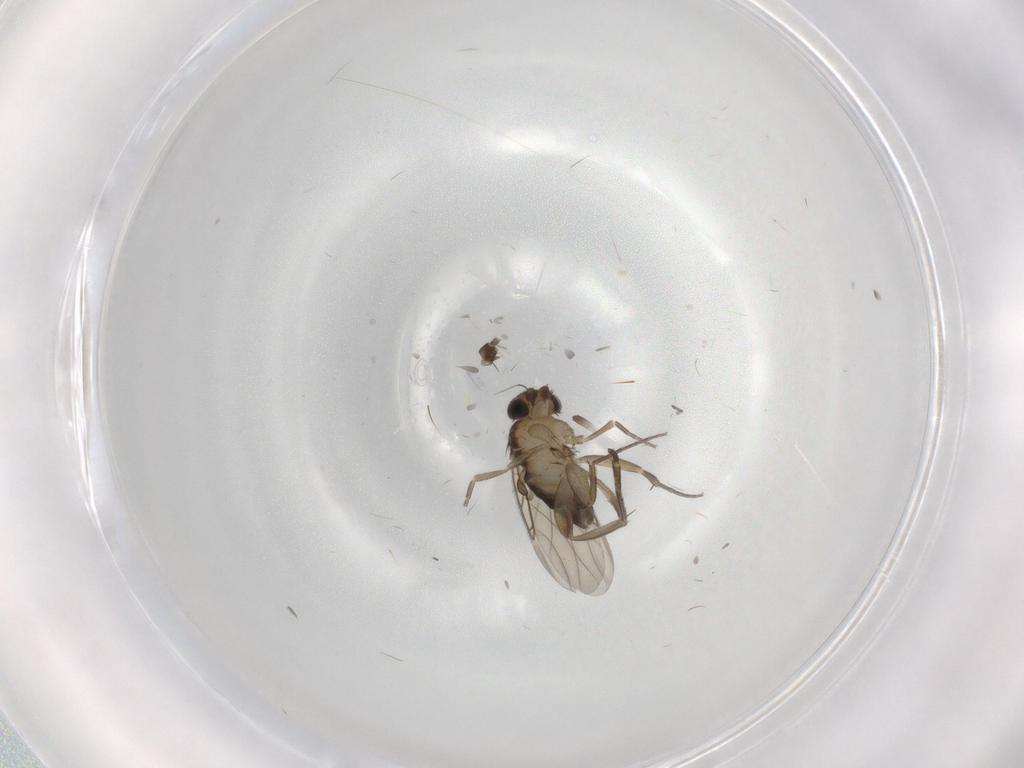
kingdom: Animalia
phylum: Arthropoda
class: Insecta
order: Diptera
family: Phoridae
